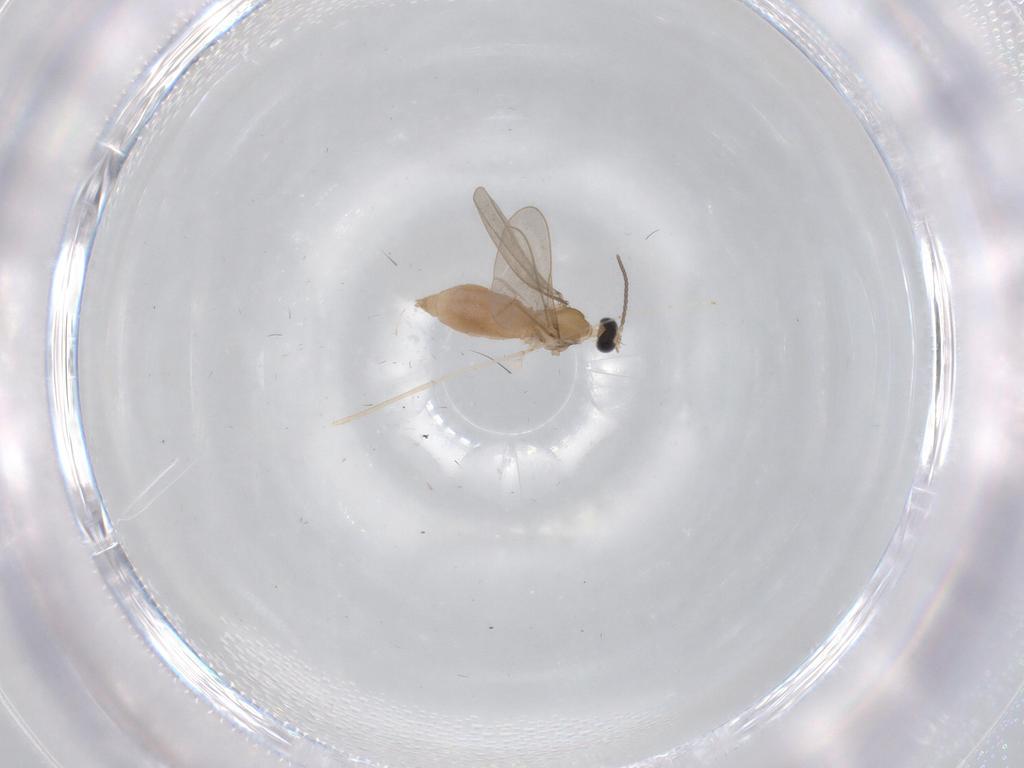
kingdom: Animalia
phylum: Arthropoda
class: Insecta
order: Diptera
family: Cecidomyiidae
